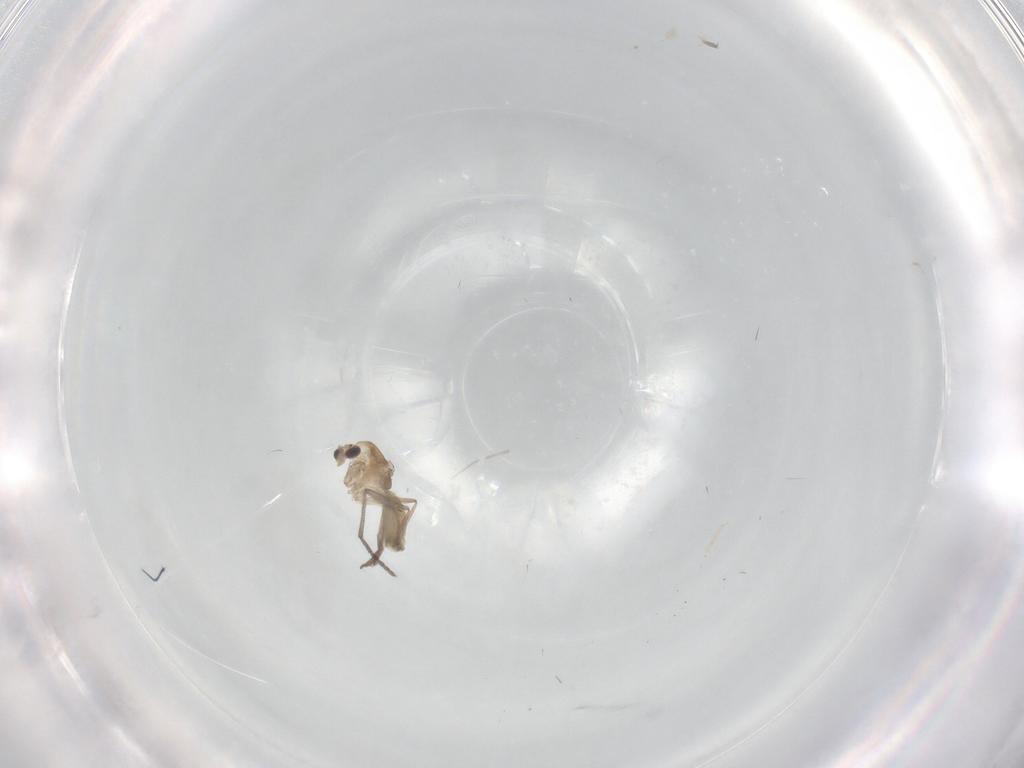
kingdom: Animalia
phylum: Arthropoda
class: Insecta
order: Diptera
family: Sciaridae
